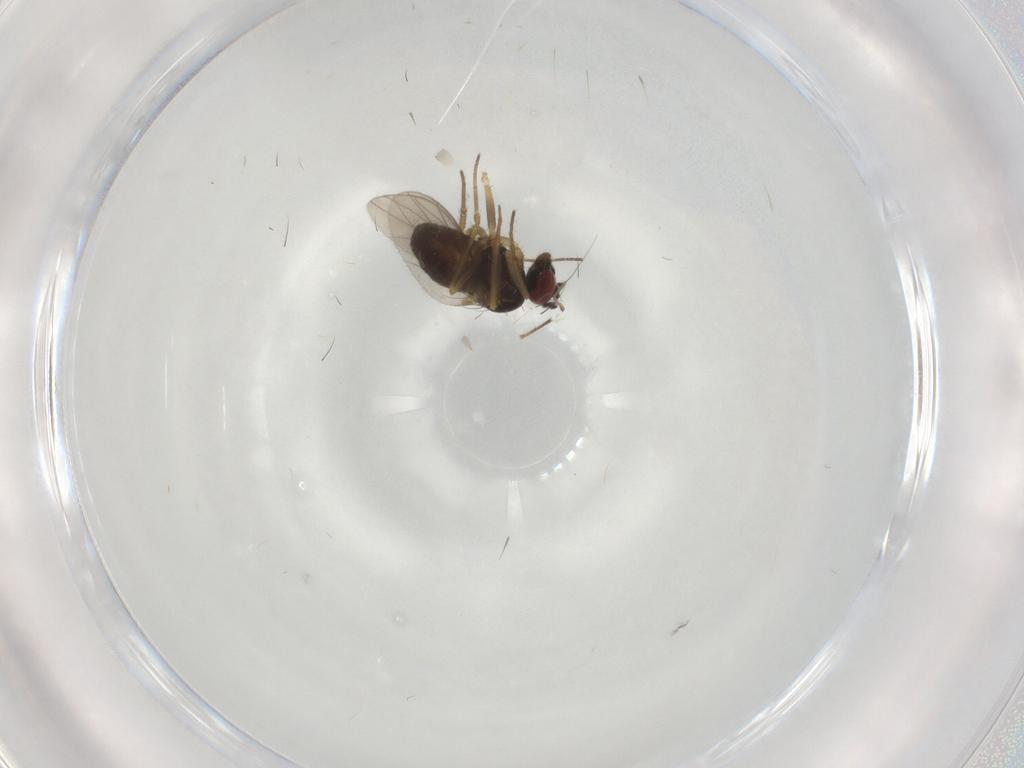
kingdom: Animalia
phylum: Arthropoda
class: Insecta
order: Diptera
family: Dolichopodidae
